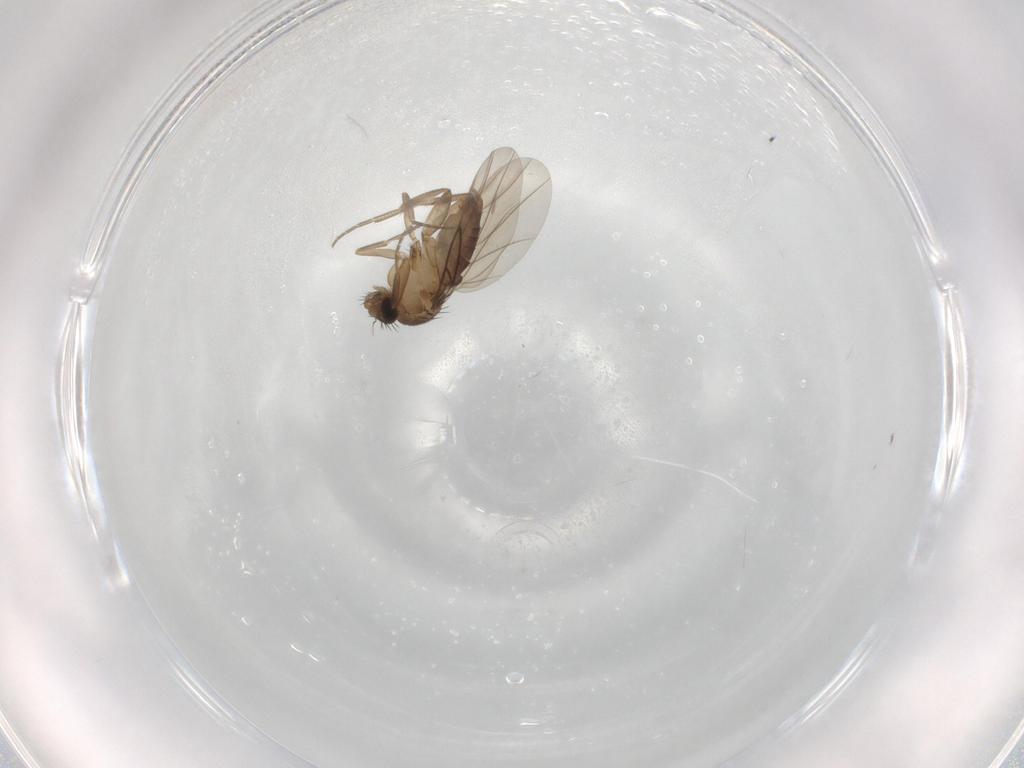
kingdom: Animalia
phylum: Arthropoda
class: Insecta
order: Diptera
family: Phoridae
